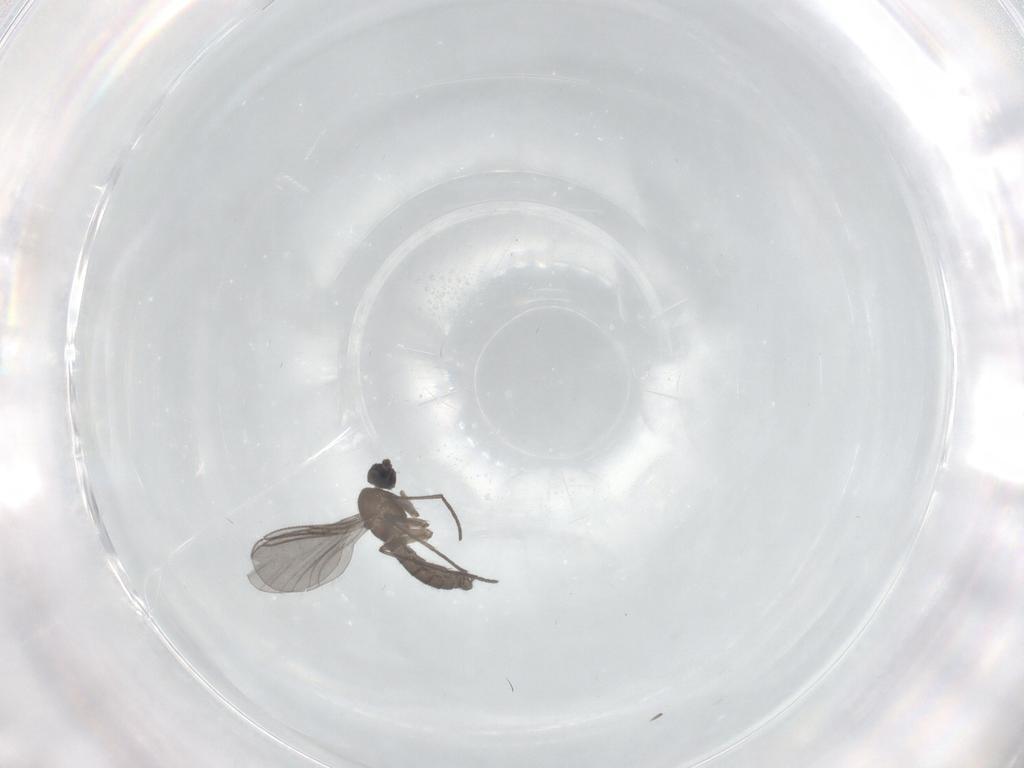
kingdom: Animalia
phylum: Arthropoda
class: Insecta
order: Diptera
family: Sciaridae
